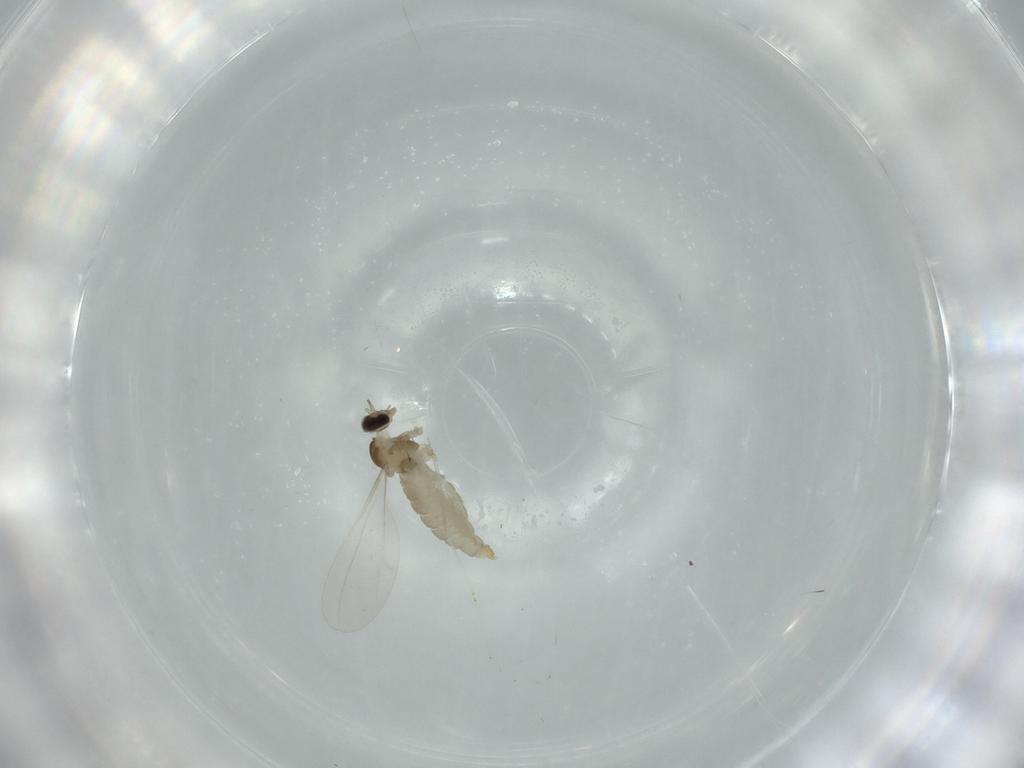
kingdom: Animalia
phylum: Arthropoda
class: Insecta
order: Diptera
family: Cecidomyiidae
